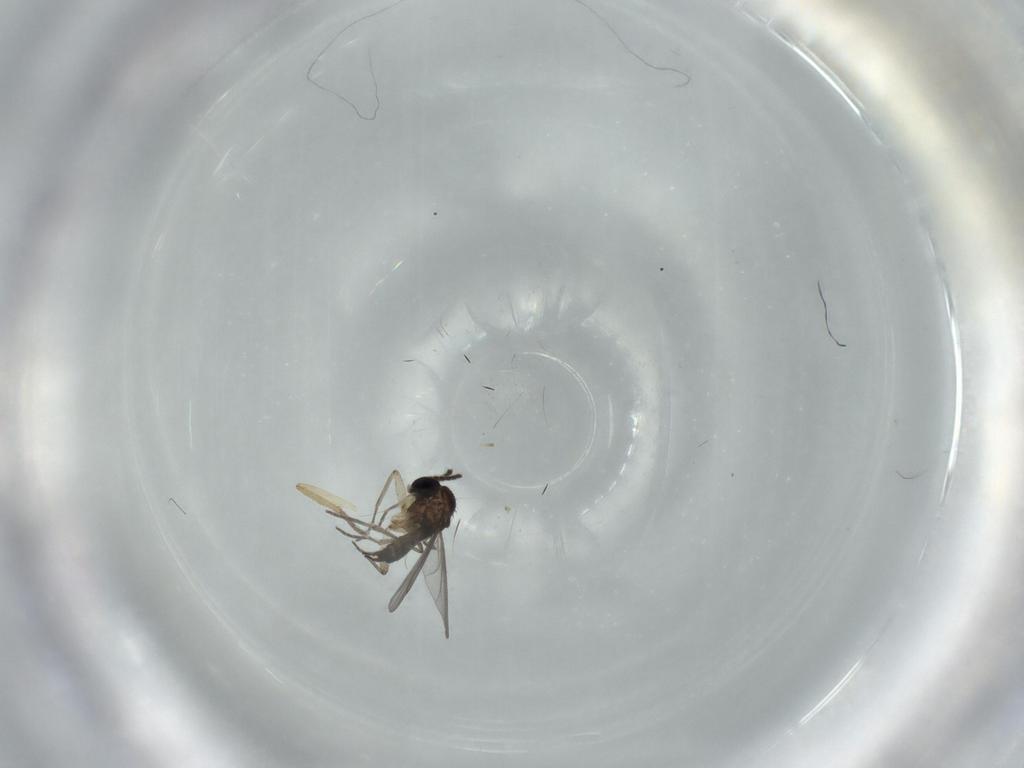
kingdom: Animalia
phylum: Arthropoda
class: Insecta
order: Diptera
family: Sciaridae
